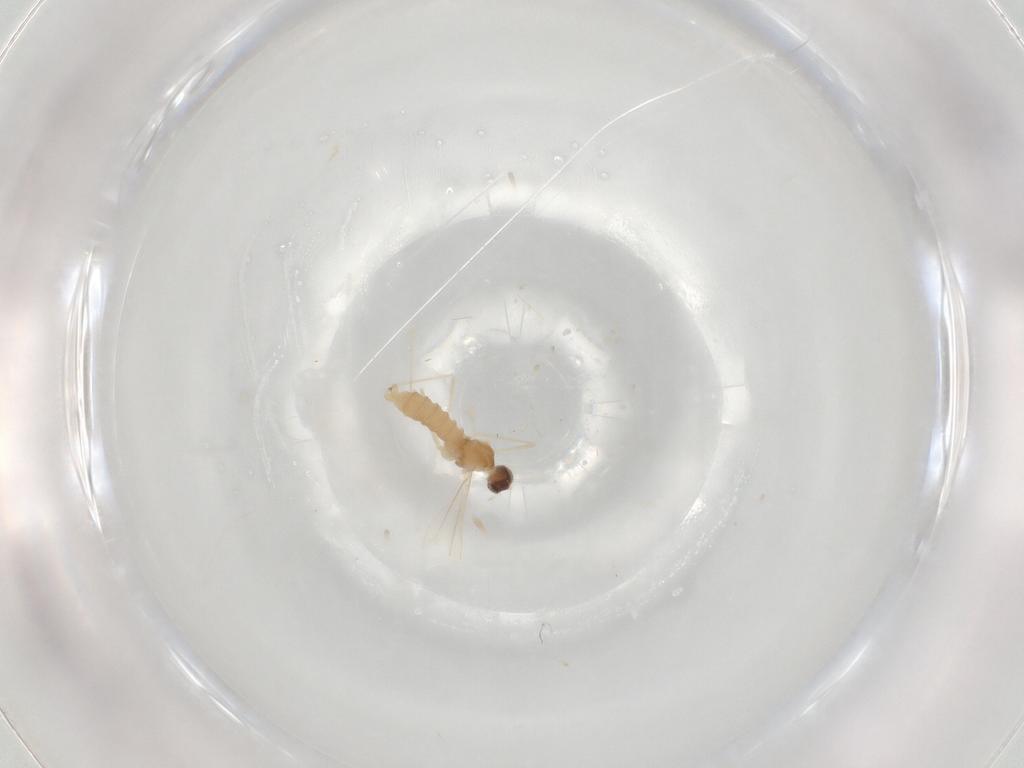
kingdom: Animalia
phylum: Arthropoda
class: Insecta
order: Diptera
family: Cecidomyiidae
